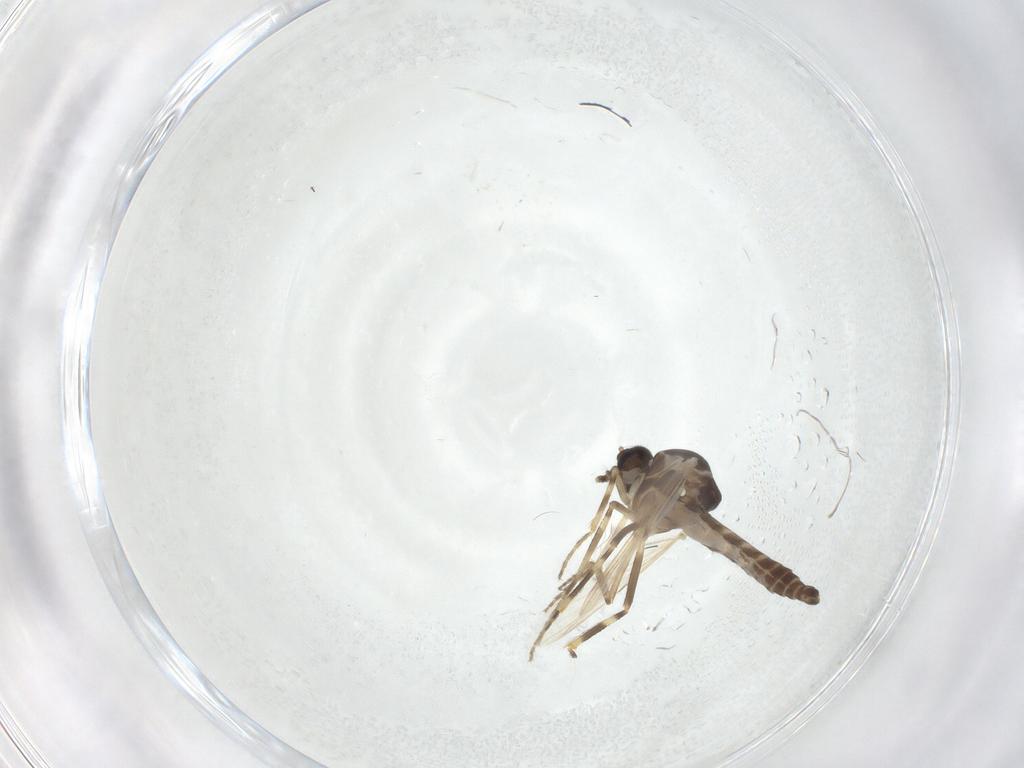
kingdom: Animalia
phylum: Arthropoda
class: Insecta
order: Diptera
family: Ceratopogonidae
